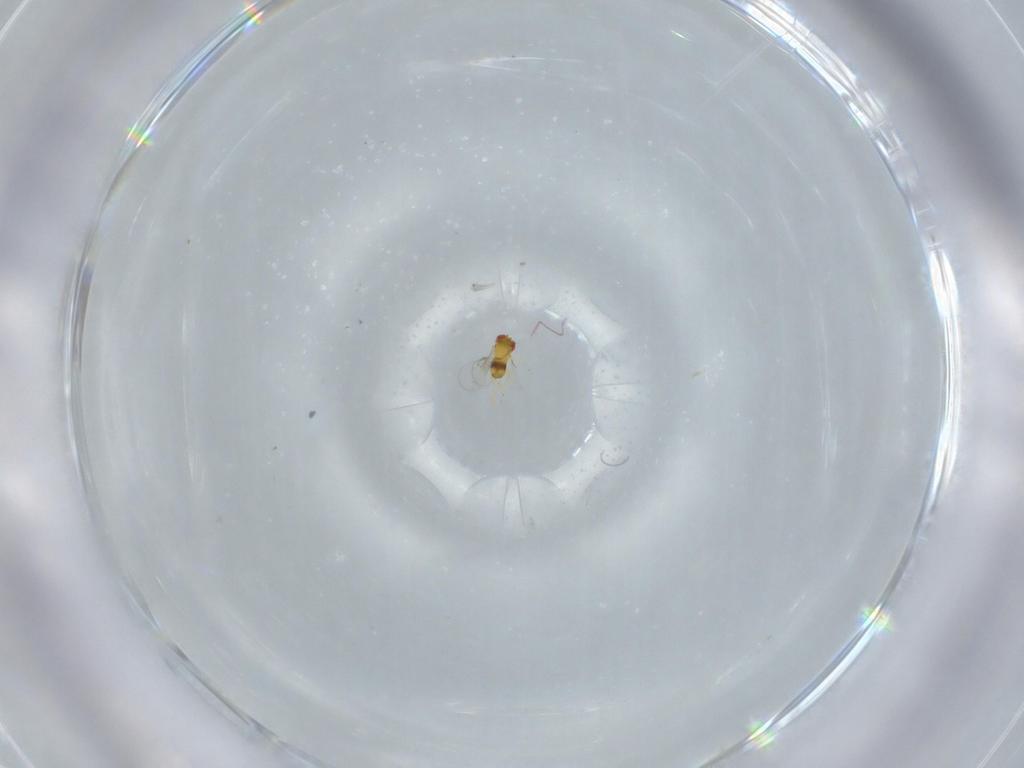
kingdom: Animalia
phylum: Arthropoda
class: Insecta
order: Hymenoptera
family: Trichogrammatidae
